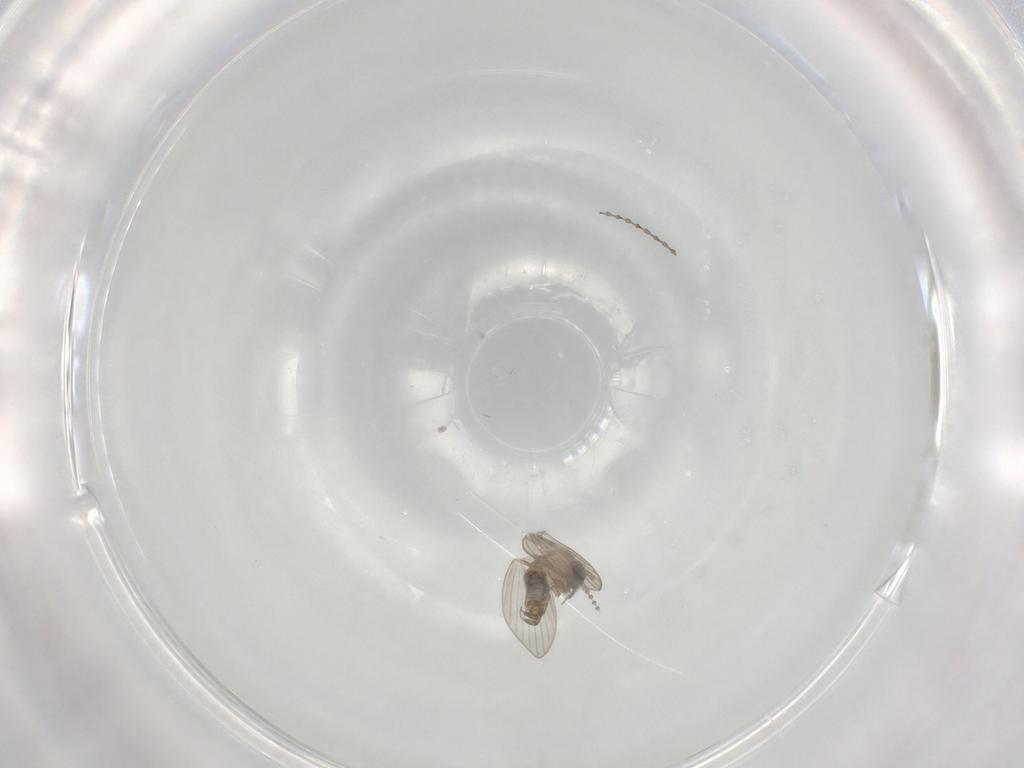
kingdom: Animalia
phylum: Arthropoda
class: Insecta
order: Diptera
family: Psychodidae
